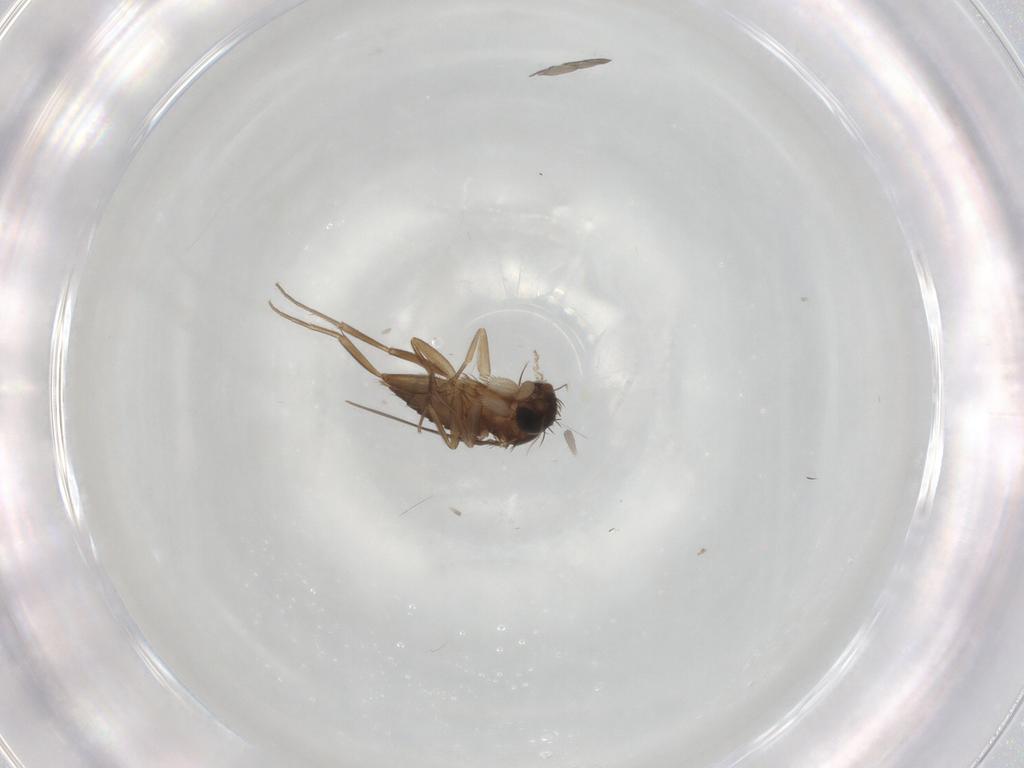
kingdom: Animalia
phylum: Arthropoda
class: Insecta
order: Diptera
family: Phoridae
